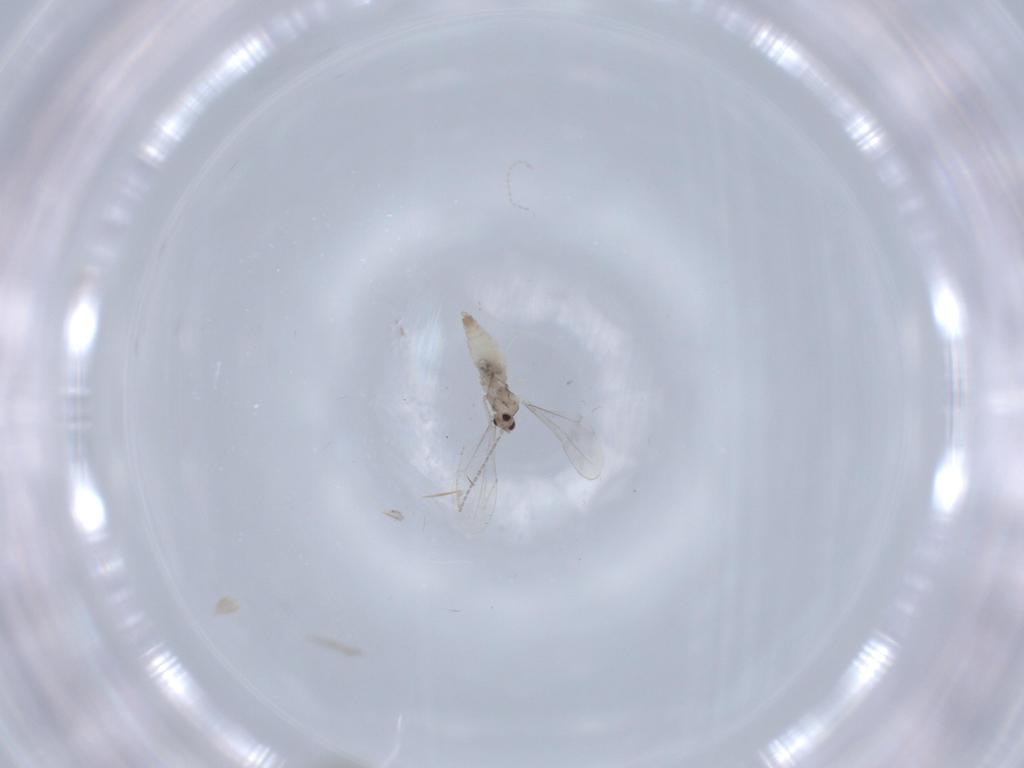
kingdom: Animalia
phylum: Arthropoda
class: Insecta
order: Diptera
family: Cecidomyiidae
